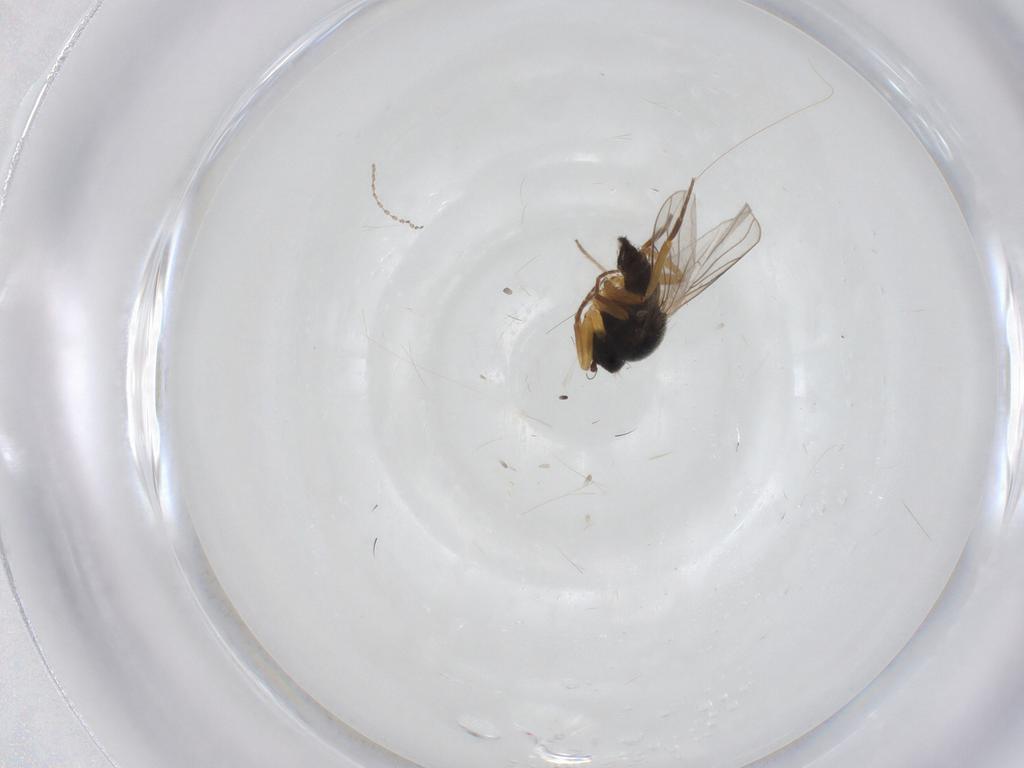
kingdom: Animalia
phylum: Arthropoda
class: Insecta
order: Diptera
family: Hybotidae
